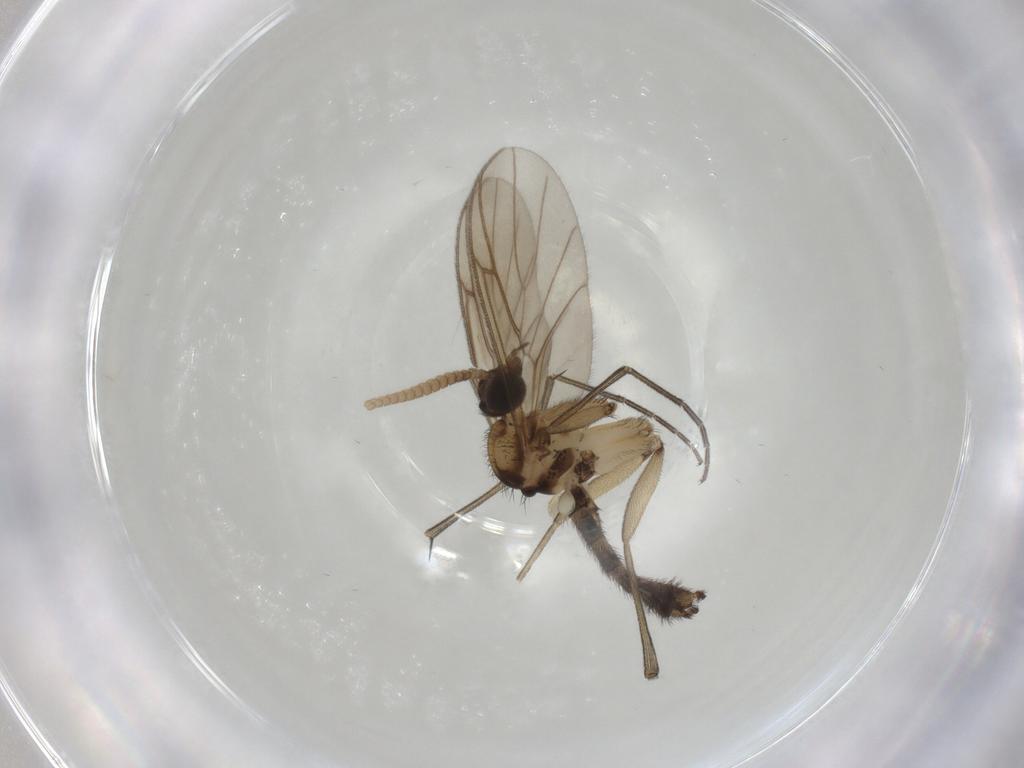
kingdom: Animalia
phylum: Arthropoda
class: Insecta
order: Diptera
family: Keroplatidae
